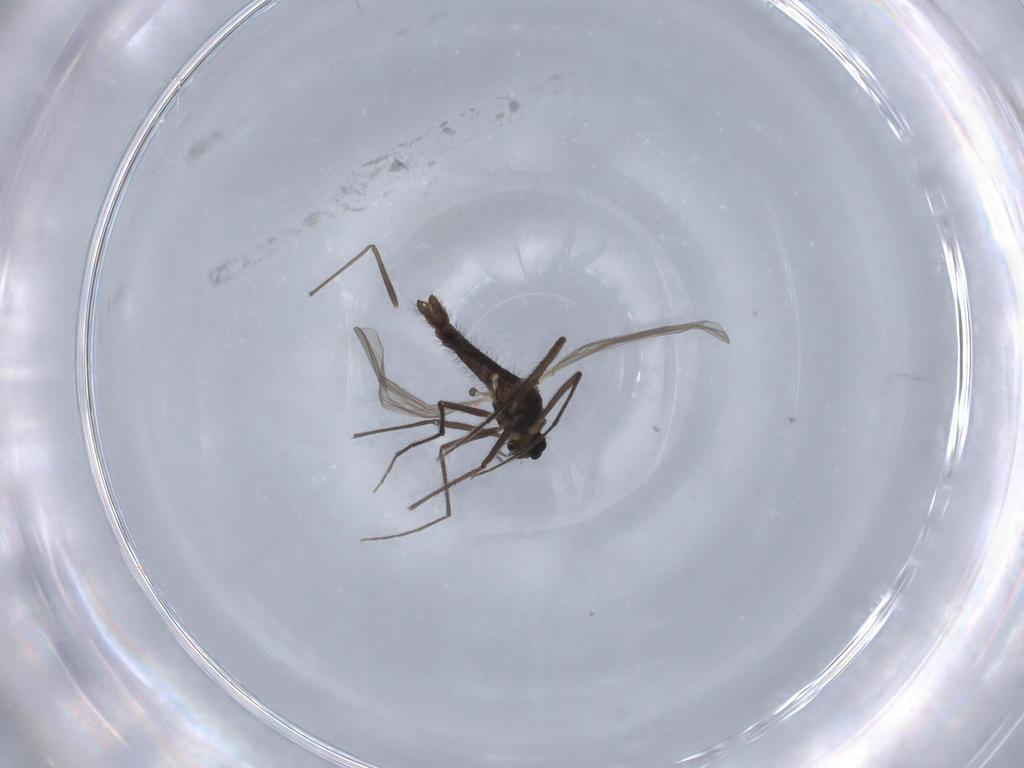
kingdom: Animalia
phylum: Arthropoda
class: Insecta
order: Diptera
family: Chironomidae
